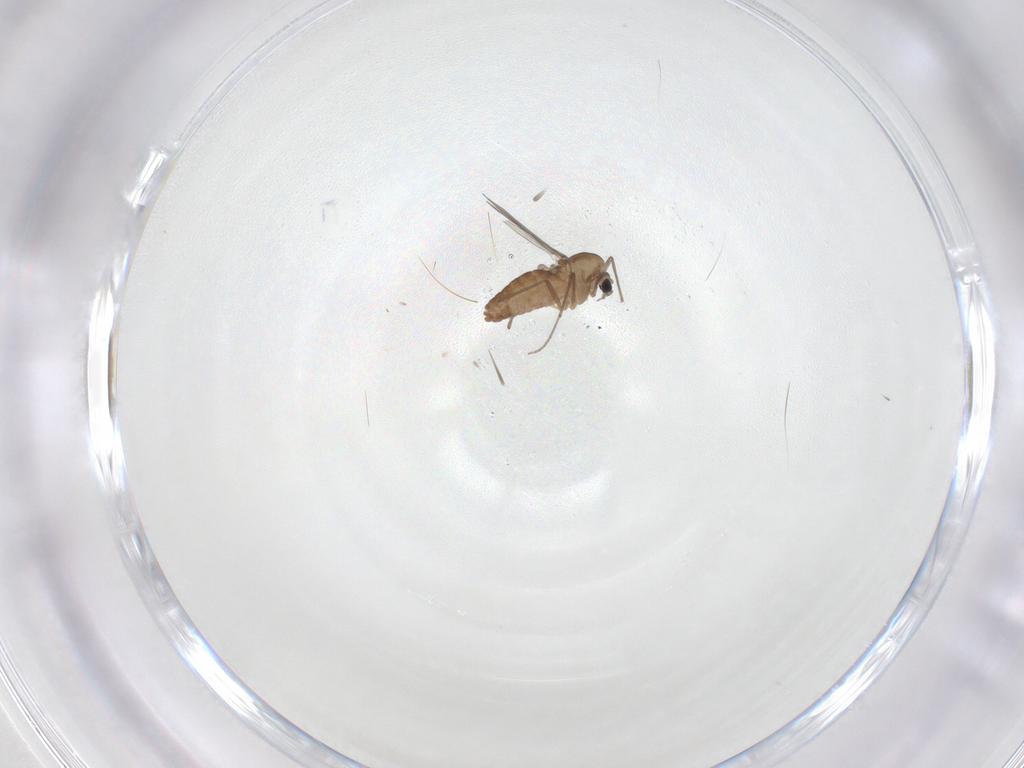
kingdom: Animalia
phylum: Arthropoda
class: Insecta
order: Diptera
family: Chironomidae
